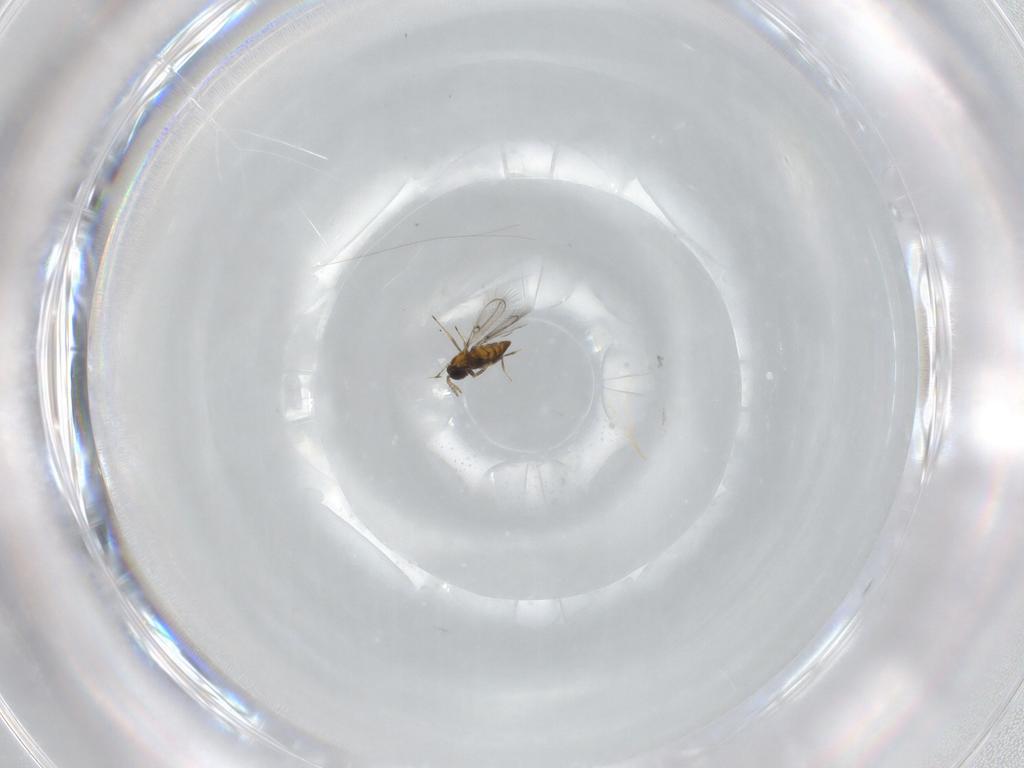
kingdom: Animalia
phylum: Arthropoda
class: Insecta
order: Hymenoptera
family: Trichogrammatidae
